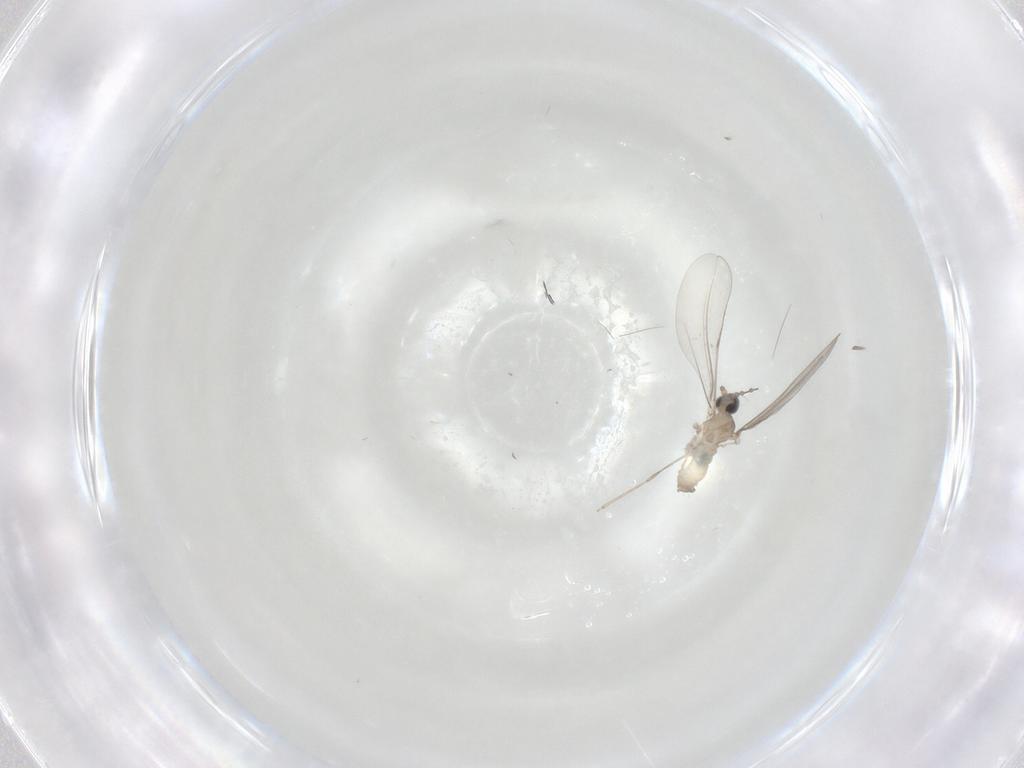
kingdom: Animalia
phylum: Arthropoda
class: Insecta
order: Diptera
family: Cecidomyiidae
